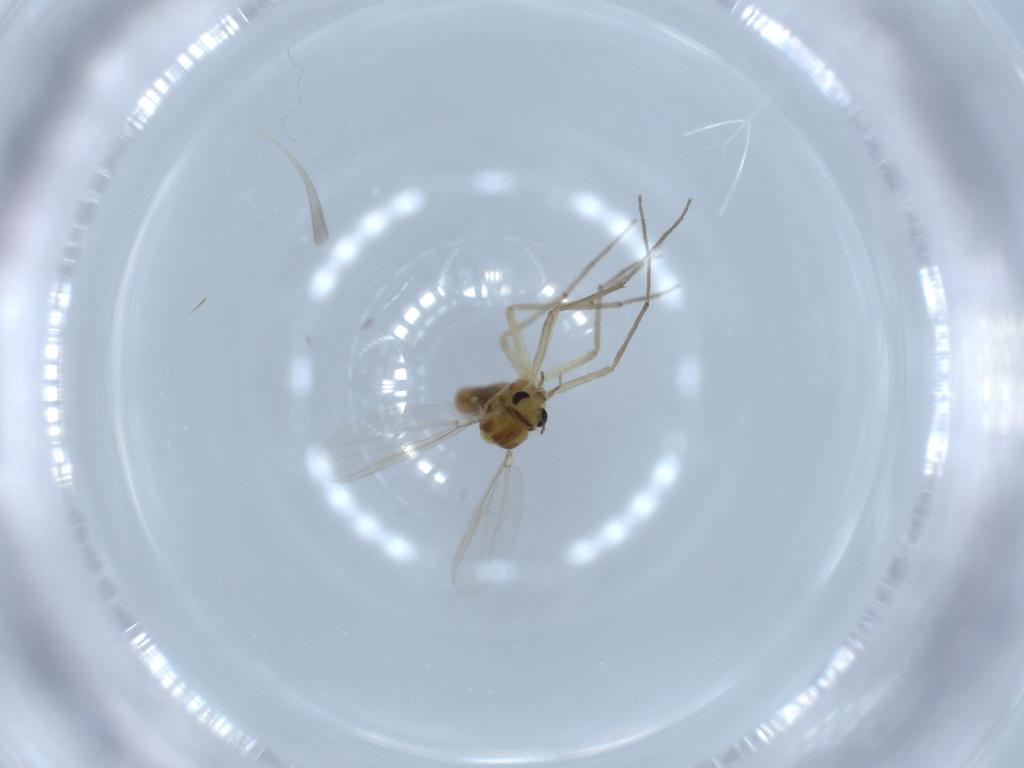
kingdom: Animalia
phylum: Arthropoda
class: Insecta
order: Diptera
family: Chironomidae
